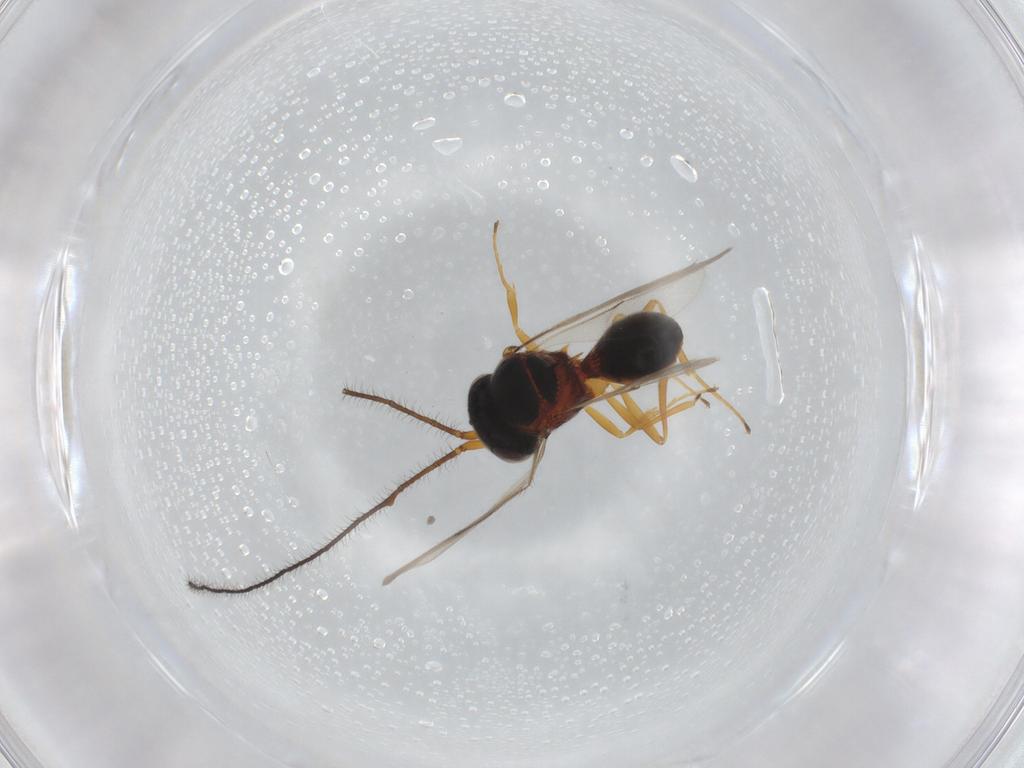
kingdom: Animalia
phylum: Arthropoda
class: Insecta
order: Hymenoptera
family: Scelionidae
